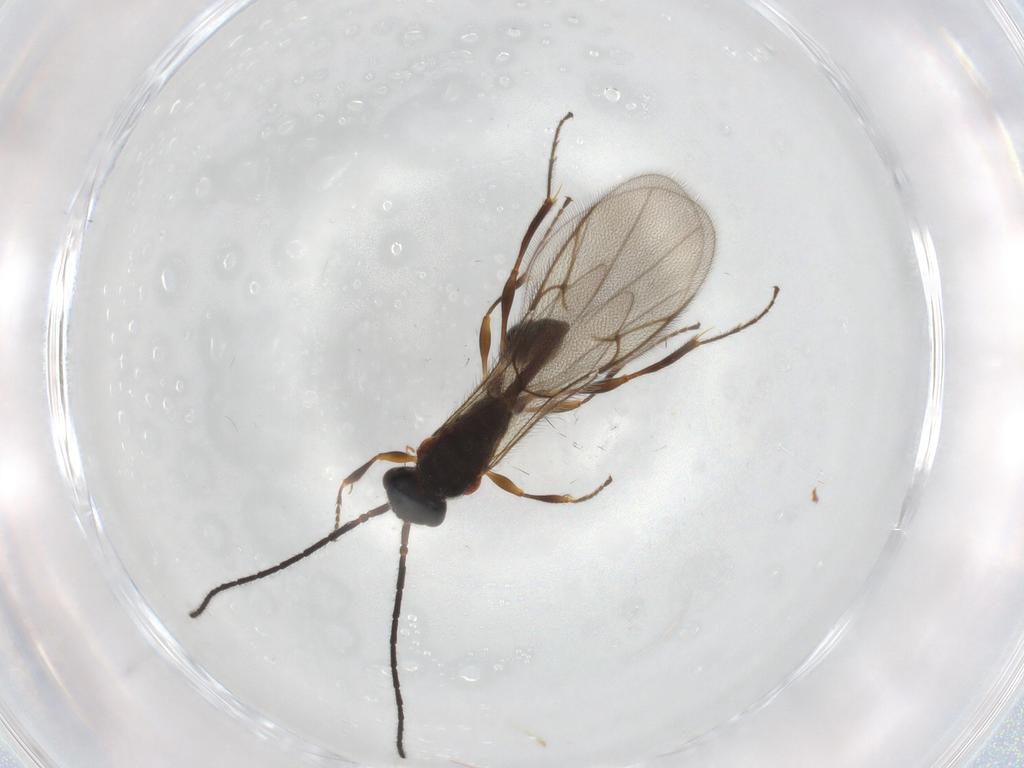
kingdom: Animalia
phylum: Arthropoda
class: Insecta
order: Hymenoptera
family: Diapriidae
